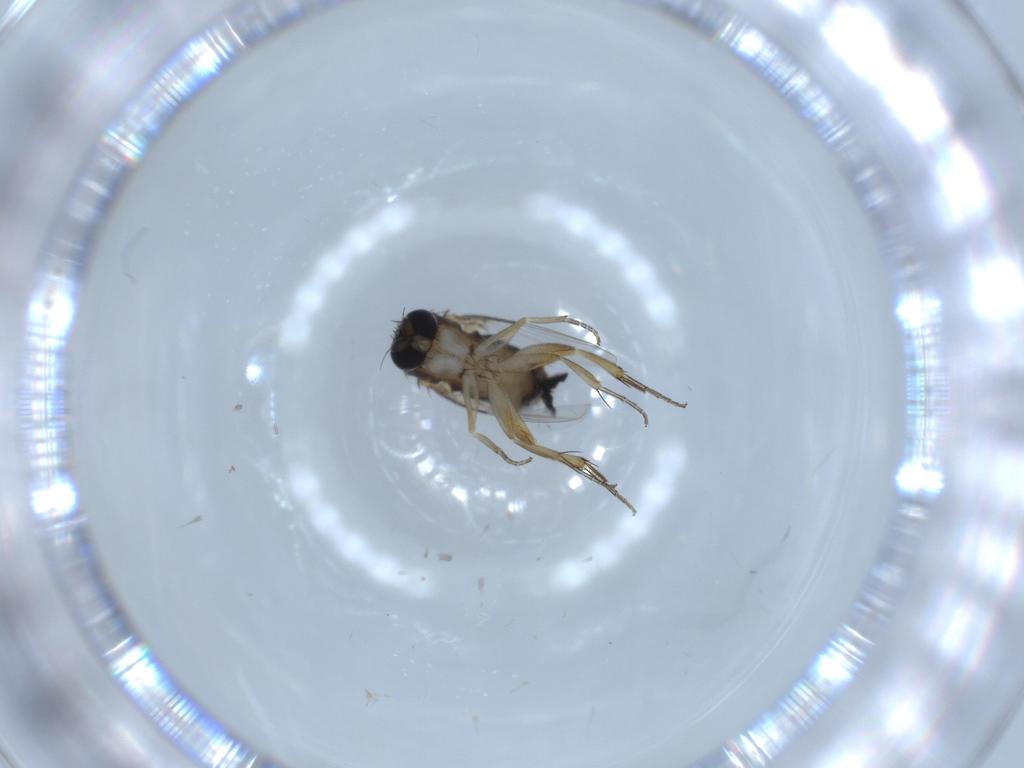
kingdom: Animalia
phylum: Arthropoda
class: Insecta
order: Diptera
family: Phoridae
